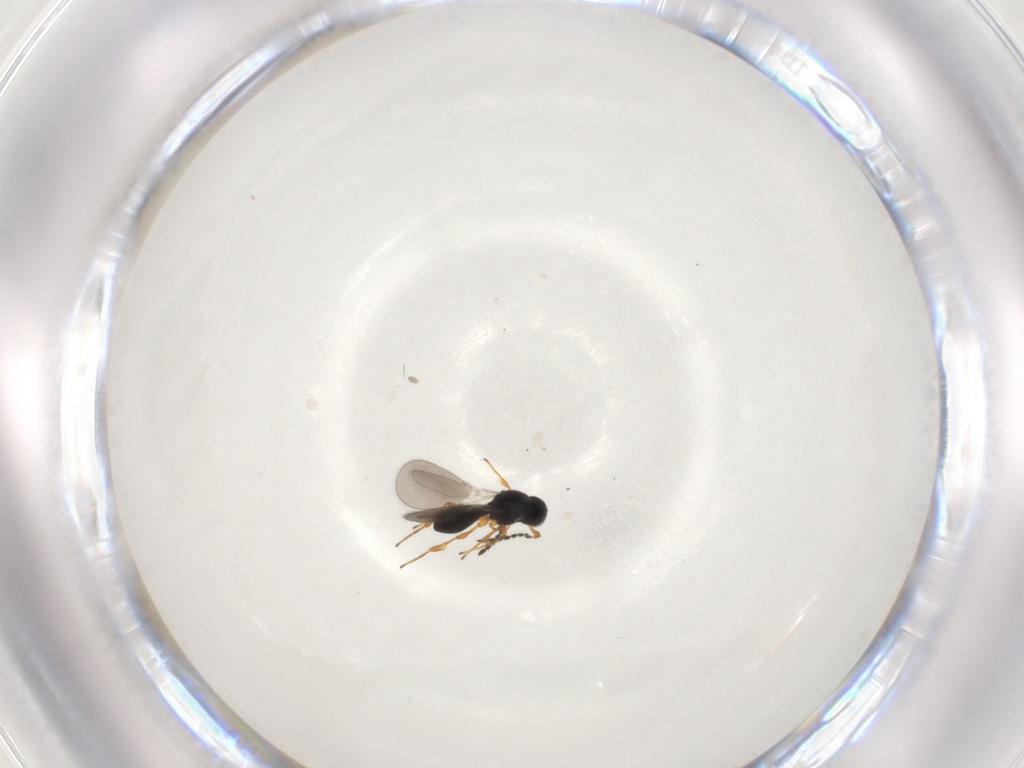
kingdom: Animalia
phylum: Arthropoda
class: Insecta
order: Hymenoptera
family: Platygastridae
